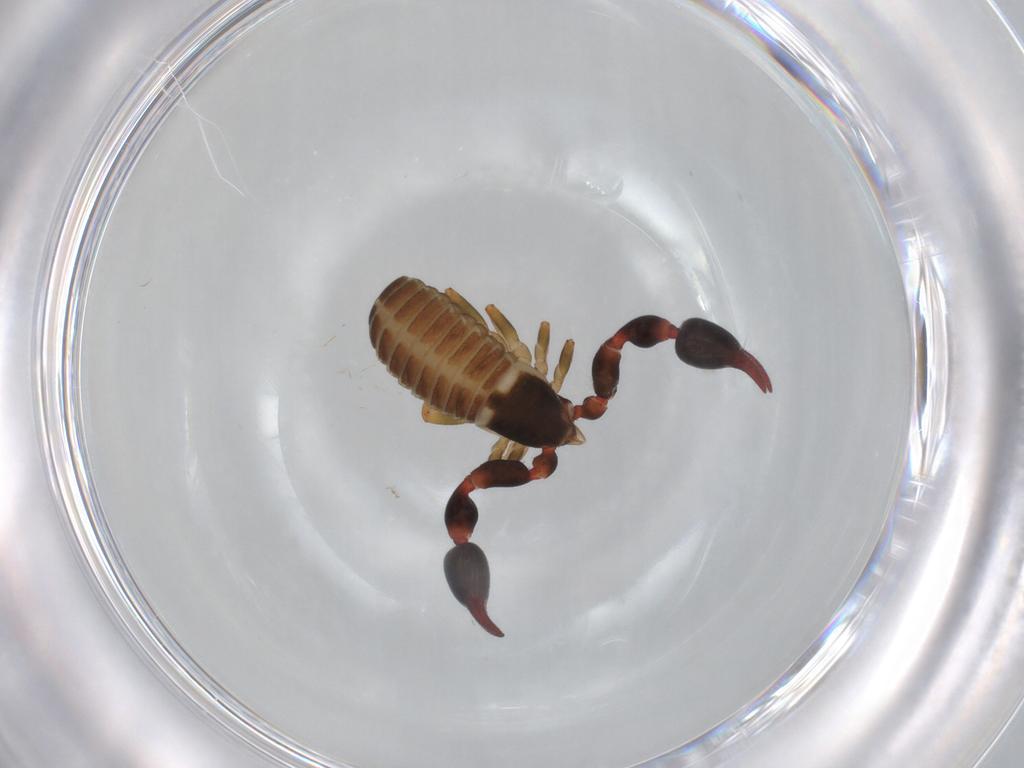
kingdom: Animalia
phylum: Arthropoda
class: Arachnida
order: Pseudoscorpiones
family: Chernetidae
